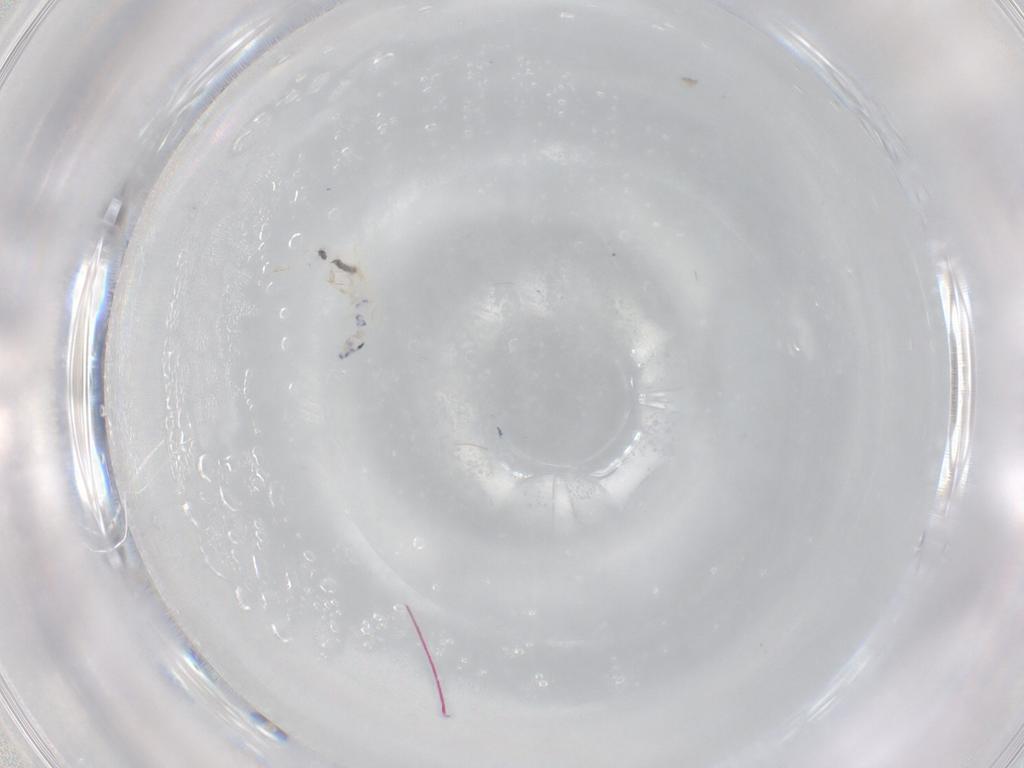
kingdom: Animalia
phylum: Arthropoda
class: Collembola
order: Entomobryomorpha
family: Entomobryidae
